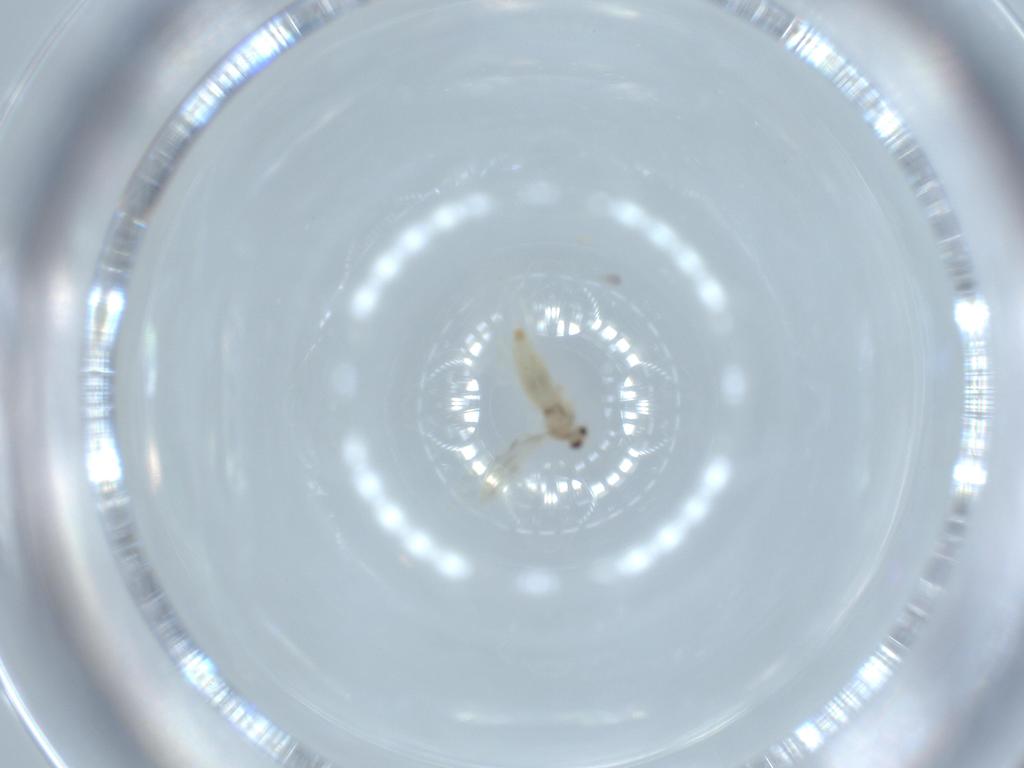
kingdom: Animalia
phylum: Arthropoda
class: Insecta
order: Diptera
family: Cecidomyiidae
